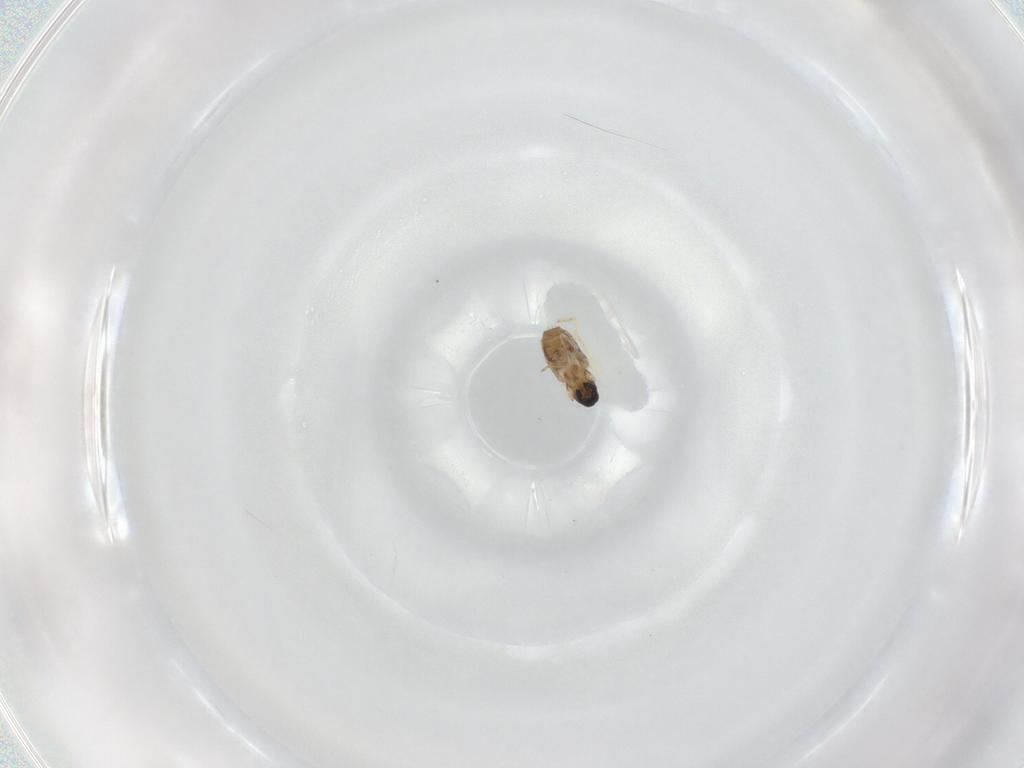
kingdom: Animalia
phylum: Arthropoda
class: Insecta
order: Diptera
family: Cecidomyiidae
